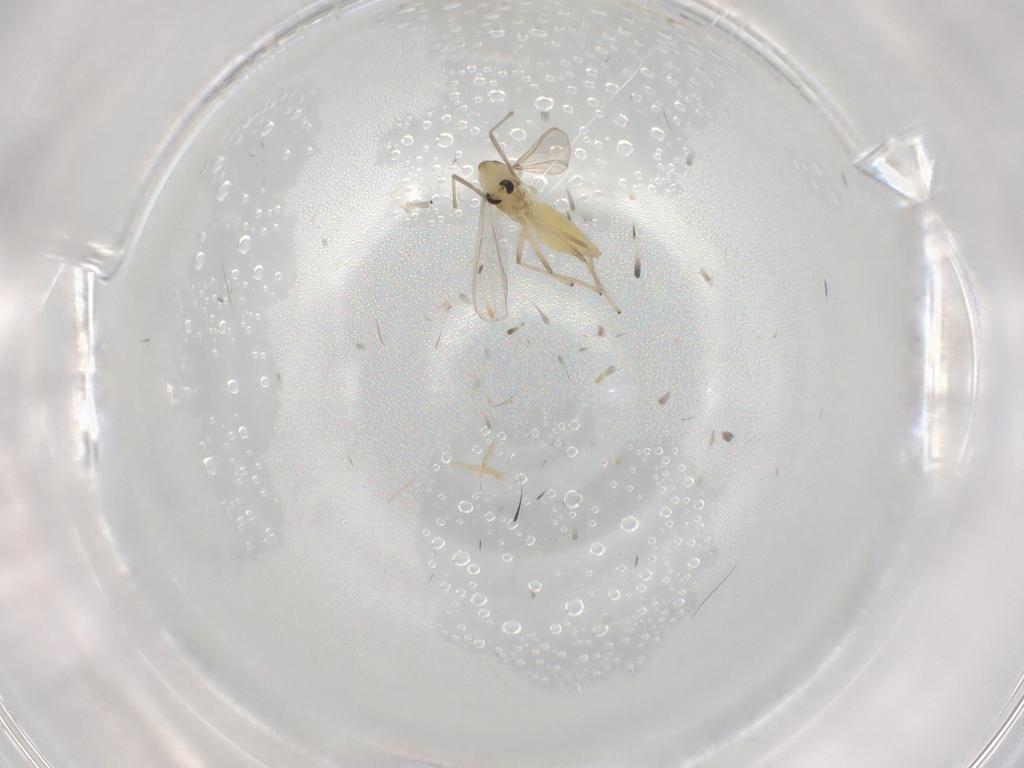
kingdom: Animalia
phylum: Arthropoda
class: Insecta
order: Diptera
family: Chironomidae
